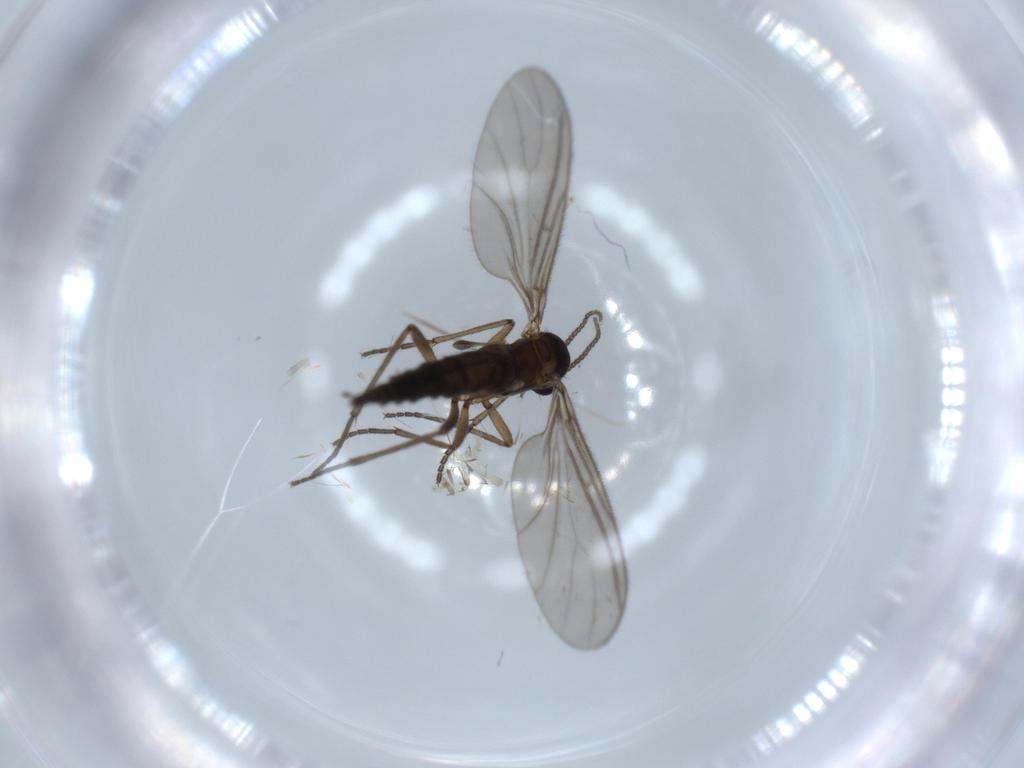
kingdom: Animalia
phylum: Arthropoda
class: Insecta
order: Diptera
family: Sciaridae
